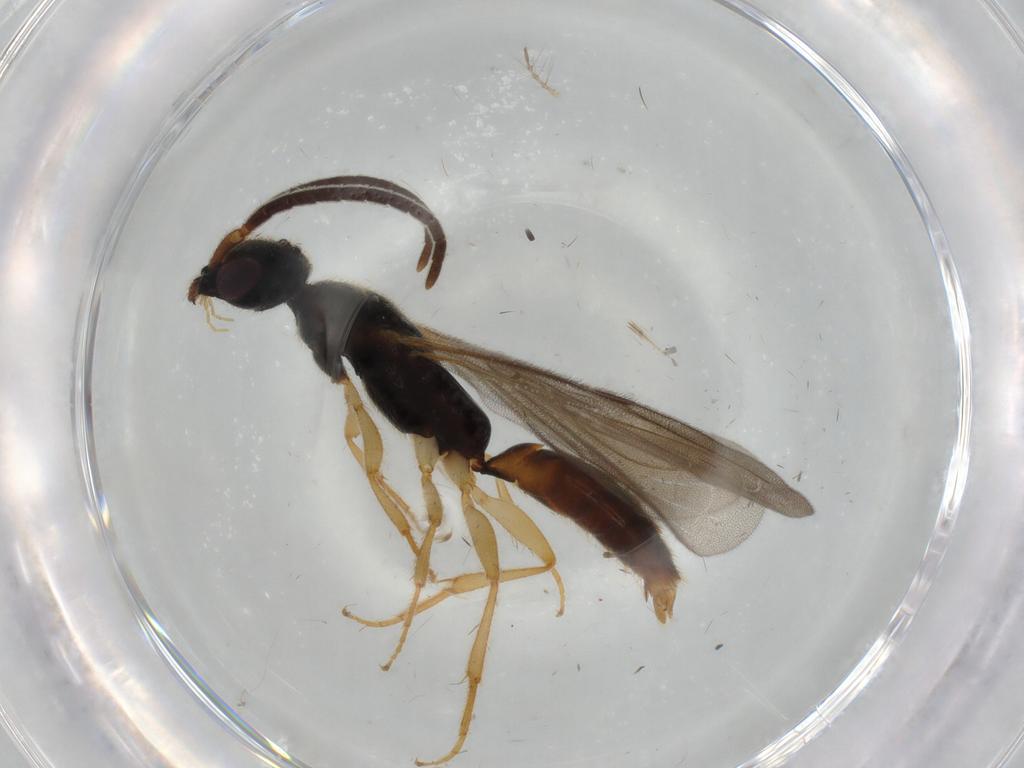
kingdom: Animalia
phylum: Arthropoda
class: Insecta
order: Hymenoptera
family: Bethylidae
